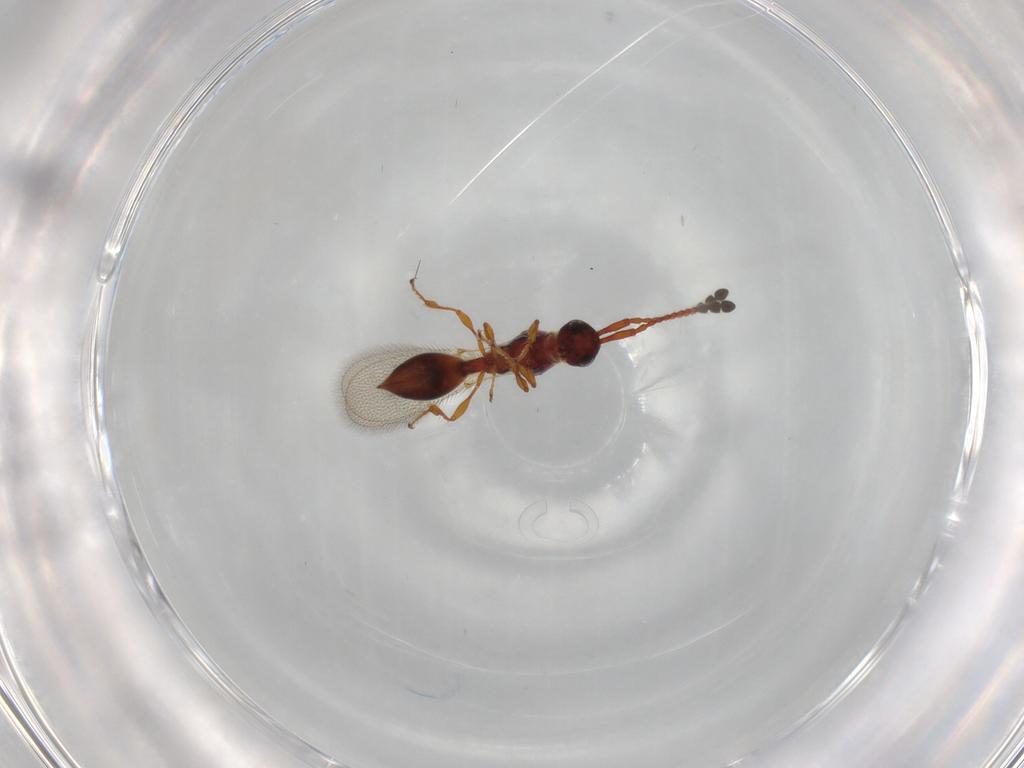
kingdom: Animalia
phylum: Arthropoda
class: Insecta
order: Hymenoptera
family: Diapriidae
